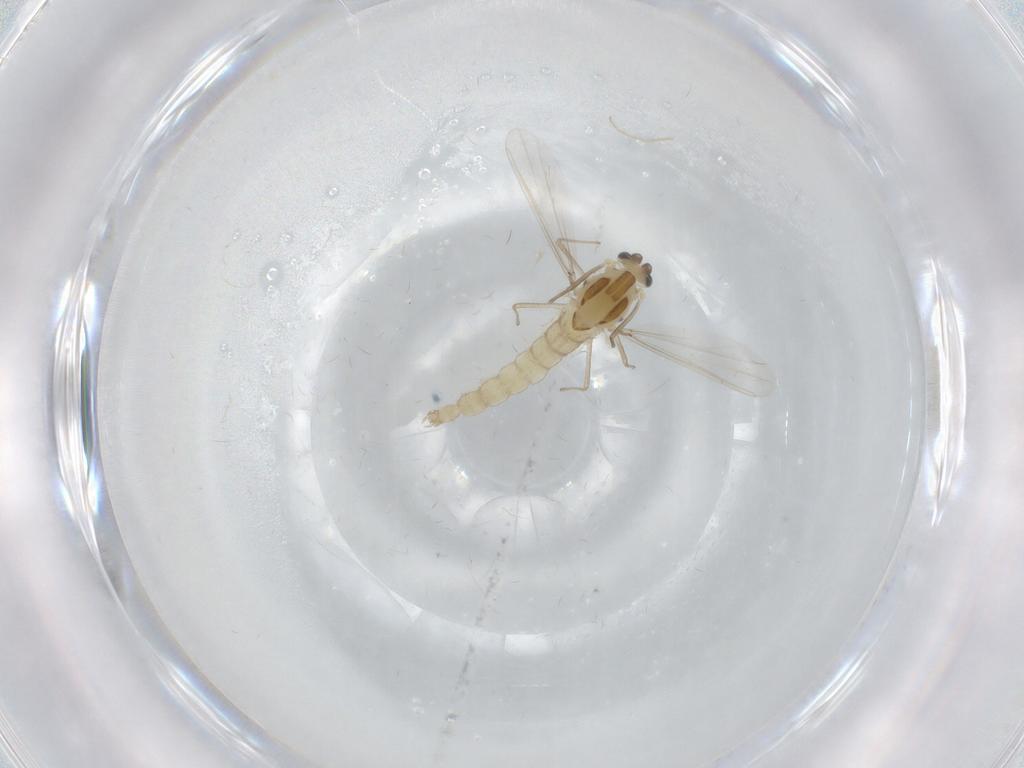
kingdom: Animalia
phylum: Arthropoda
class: Insecta
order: Diptera
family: Chironomidae
